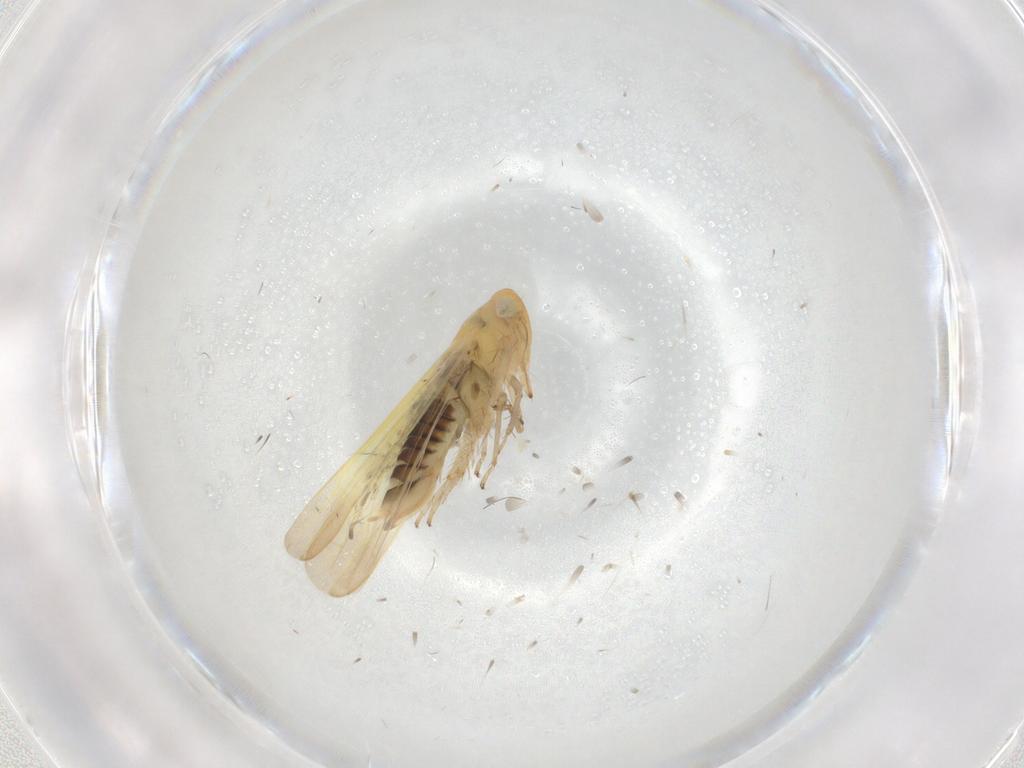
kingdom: Animalia
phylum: Arthropoda
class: Insecta
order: Hemiptera
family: Cicadellidae
